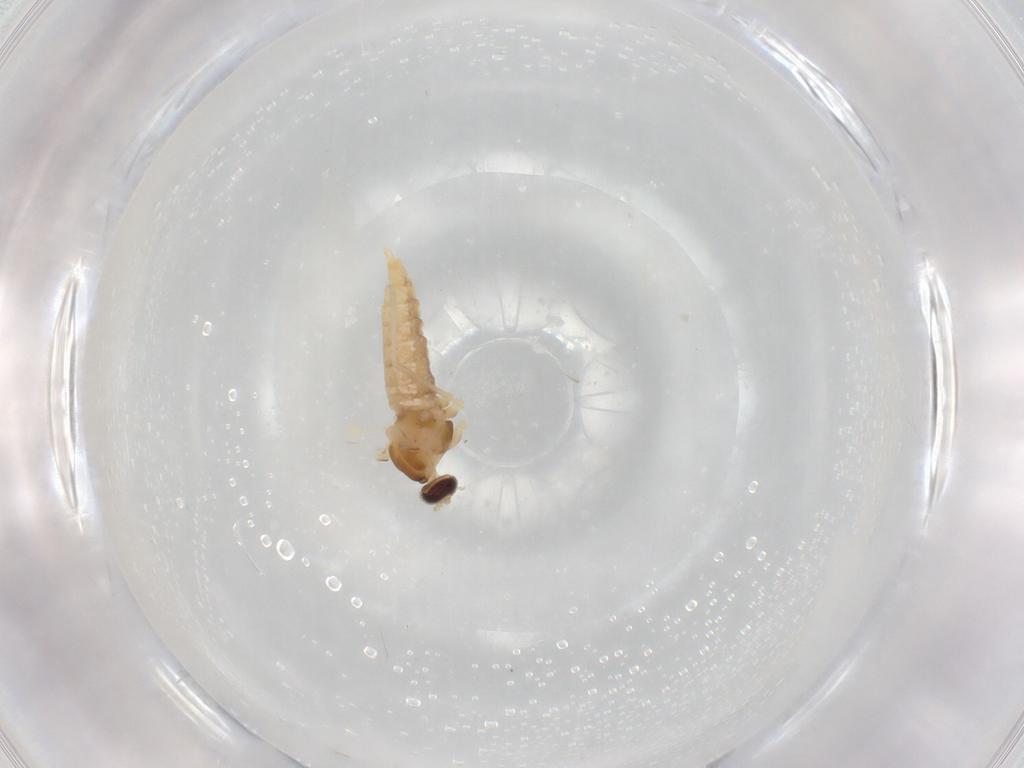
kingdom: Animalia
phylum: Arthropoda
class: Insecta
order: Diptera
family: Cecidomyiidae
